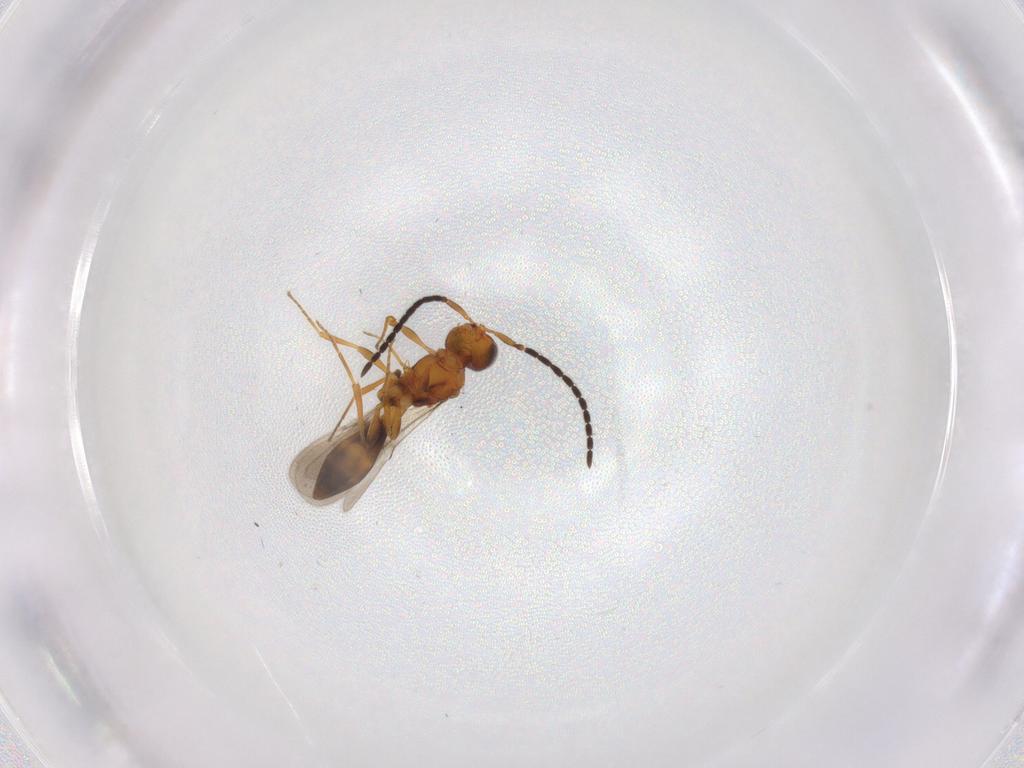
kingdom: Animalia
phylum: Arthropoda
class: Insecta
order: Hymenoptera
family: Scelionidae
